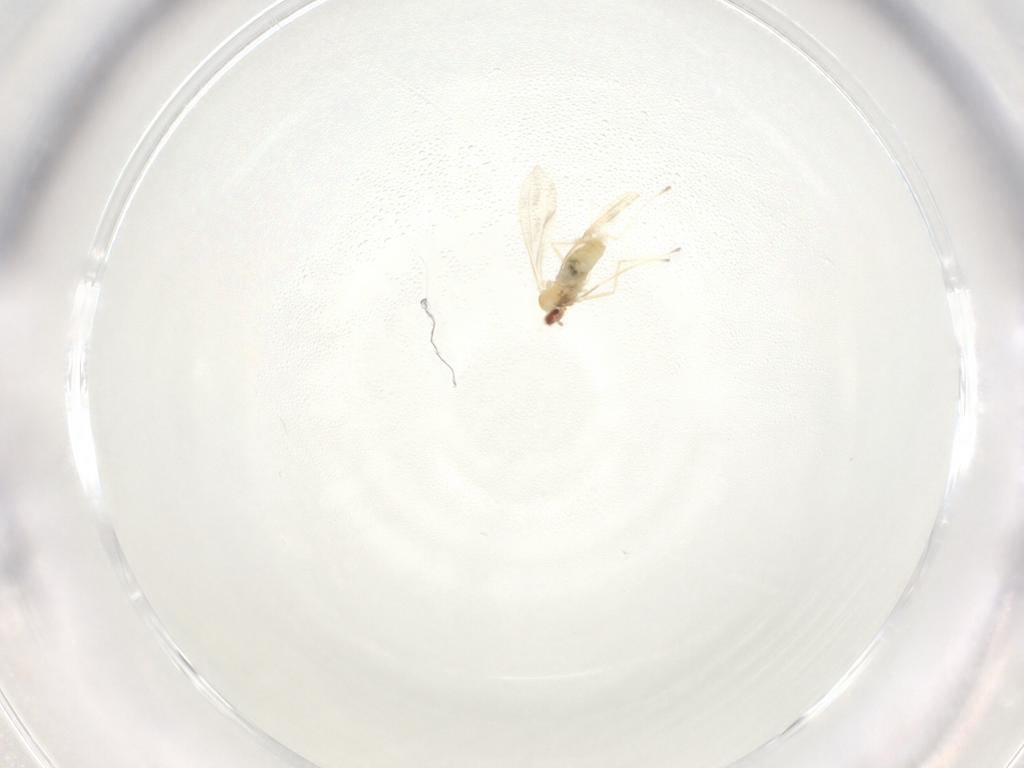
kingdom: Animalia
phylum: Arthropoda
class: Insecta
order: Diptera
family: Cecidomyiidae
